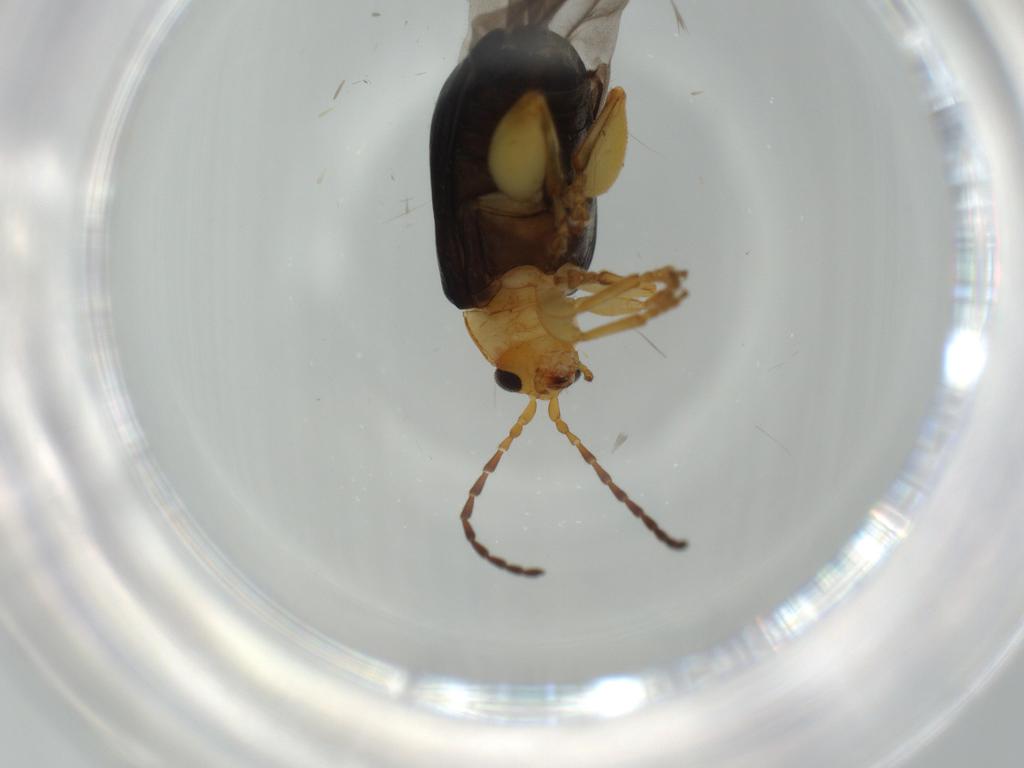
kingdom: Animalia
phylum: Arthropoda
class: Insecta
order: Coleoptera
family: Chrysomelidae
